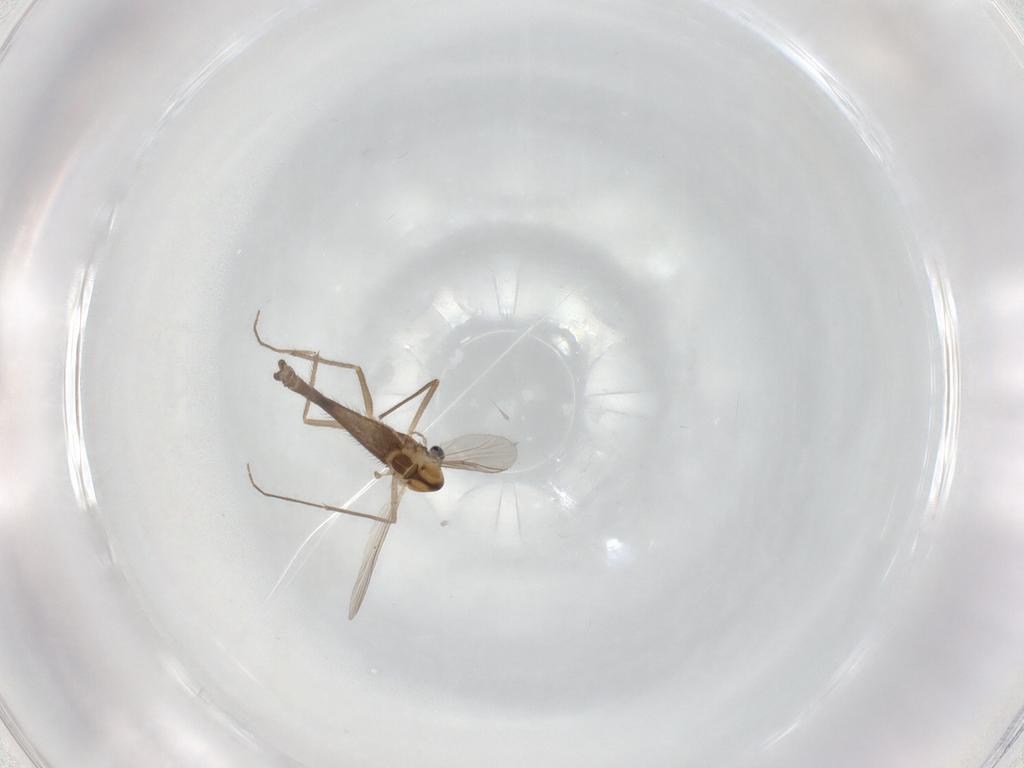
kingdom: Animalia
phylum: Arthropoda
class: Insecta
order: Diptera
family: Chironomidae
